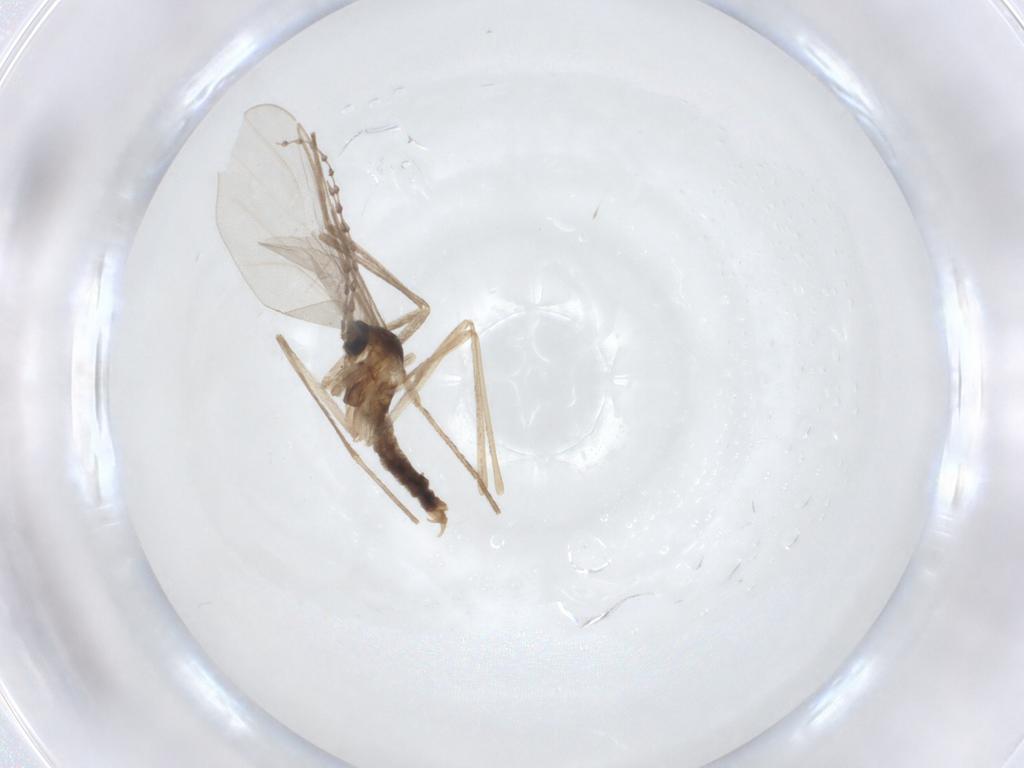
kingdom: Animalia
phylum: Arthropoda
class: Insecta
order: Diptera
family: Cecidomyiidae
